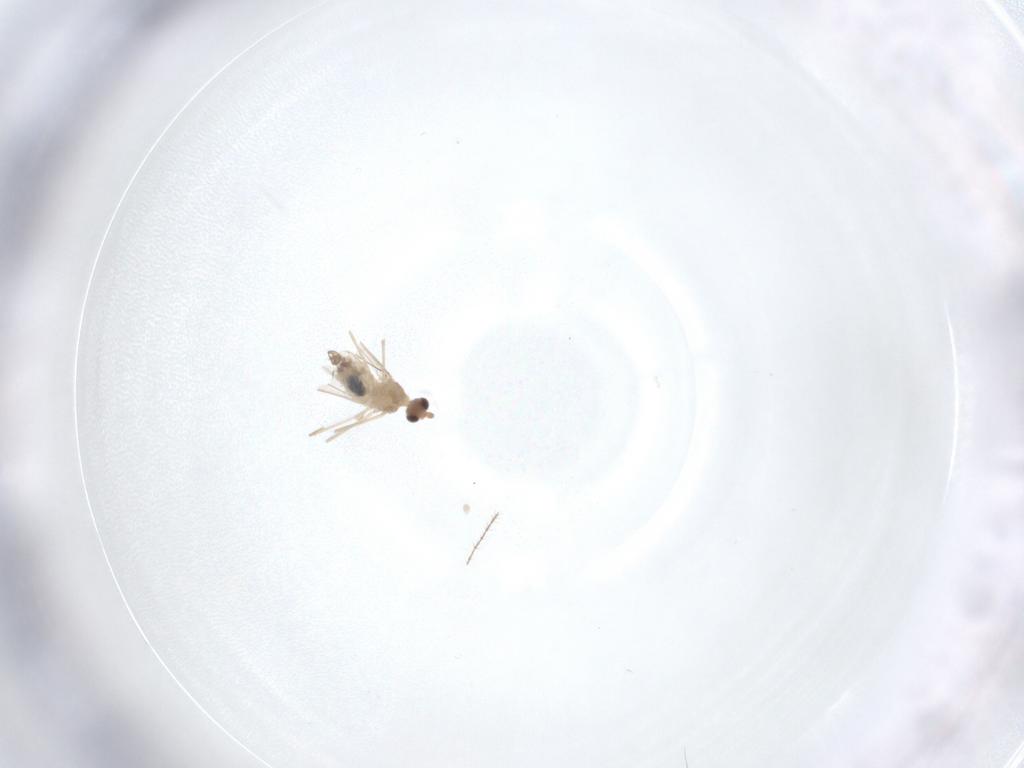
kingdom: Animalia
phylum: Arthropoda
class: Insecta
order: Diptera
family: Cecidomyiidae
